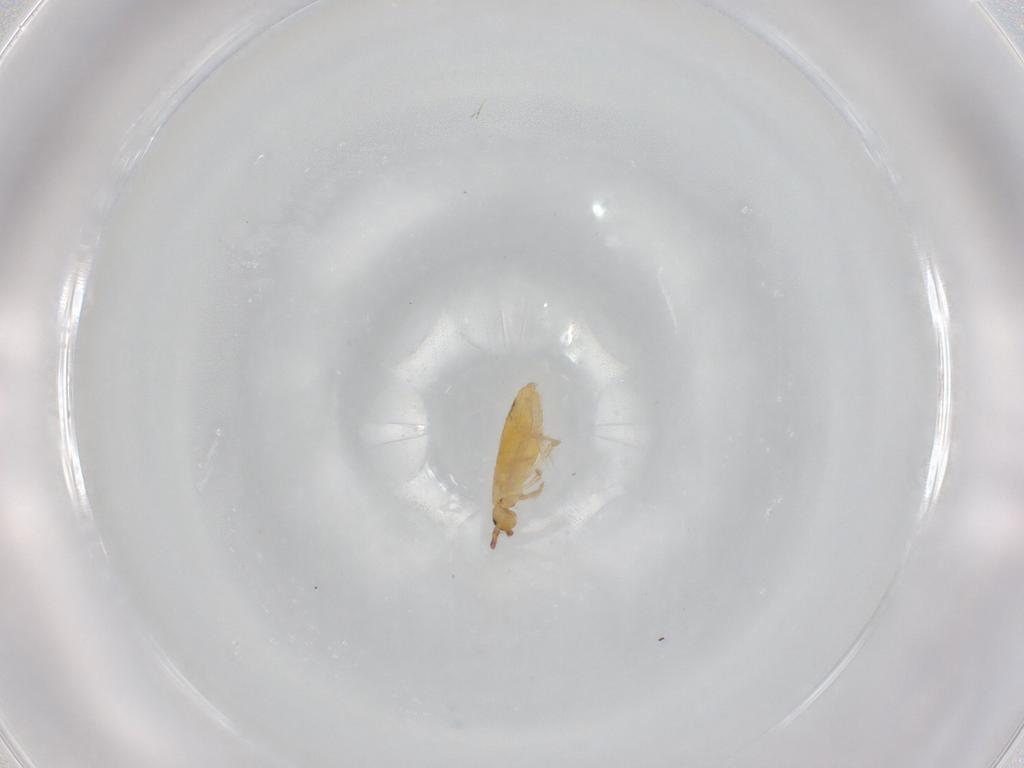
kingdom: Animalia
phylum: Arthropoda
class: Collembola
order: Entomobryomorpha
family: Entomobryidae
